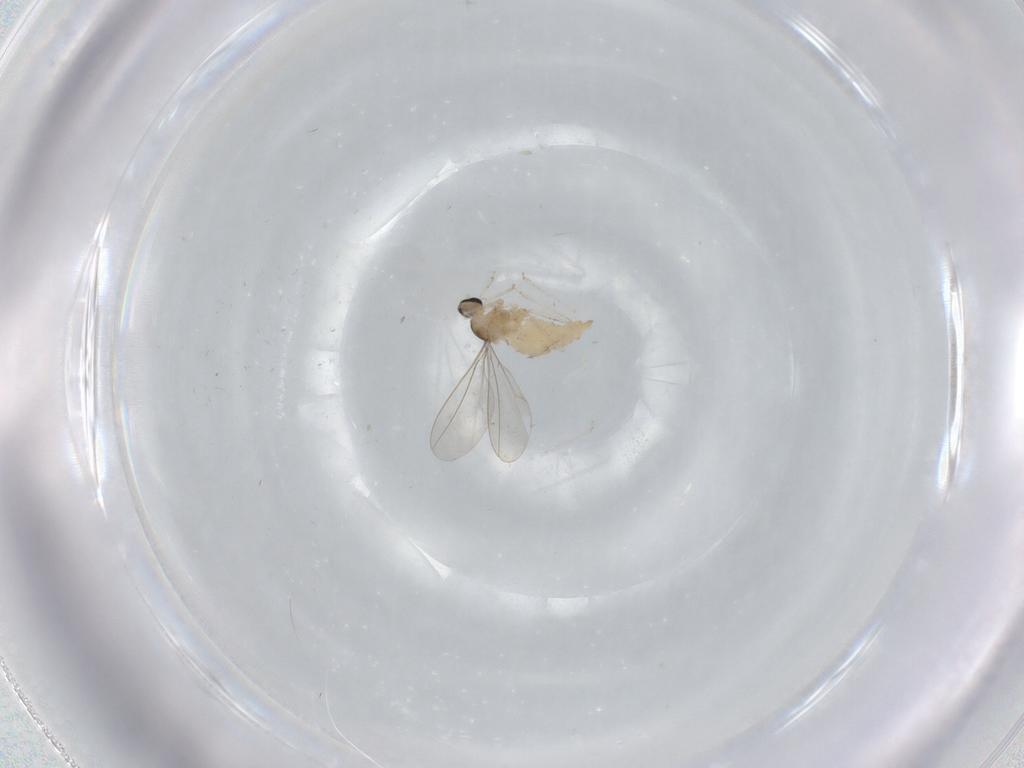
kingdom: Animalia
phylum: Arthropoda
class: Insecta
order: Diptera
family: Cecidomyiidae
